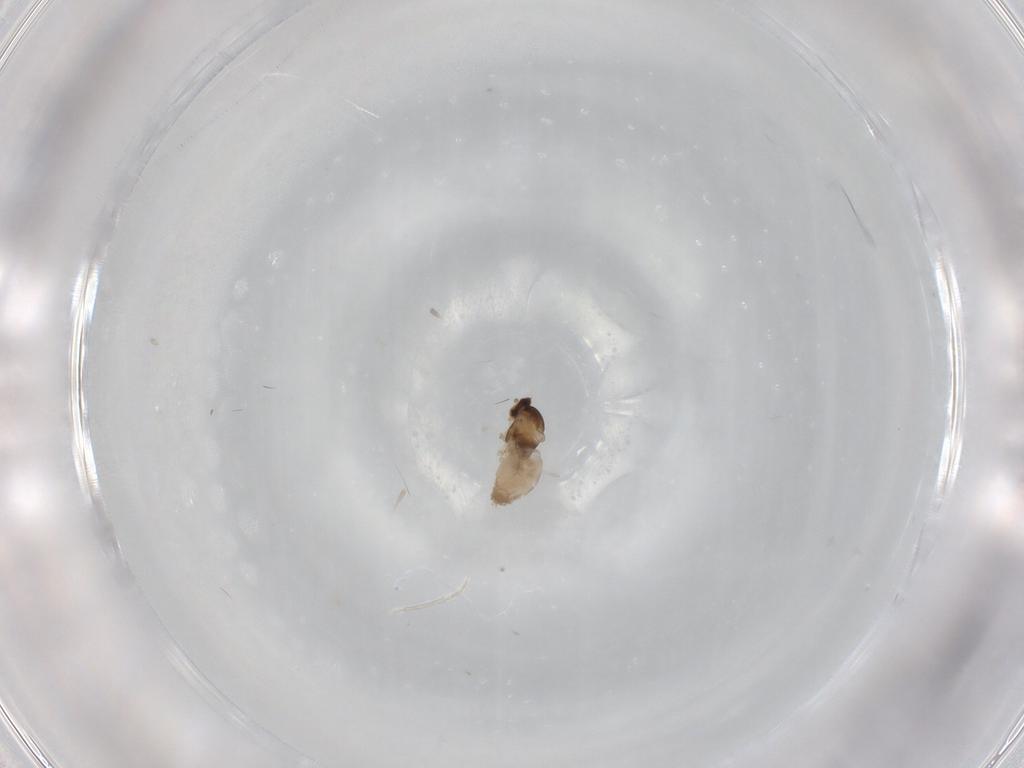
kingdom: Animalia
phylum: Arthropoda
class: Insecta
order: Diptera
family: Cecidomyiidae
